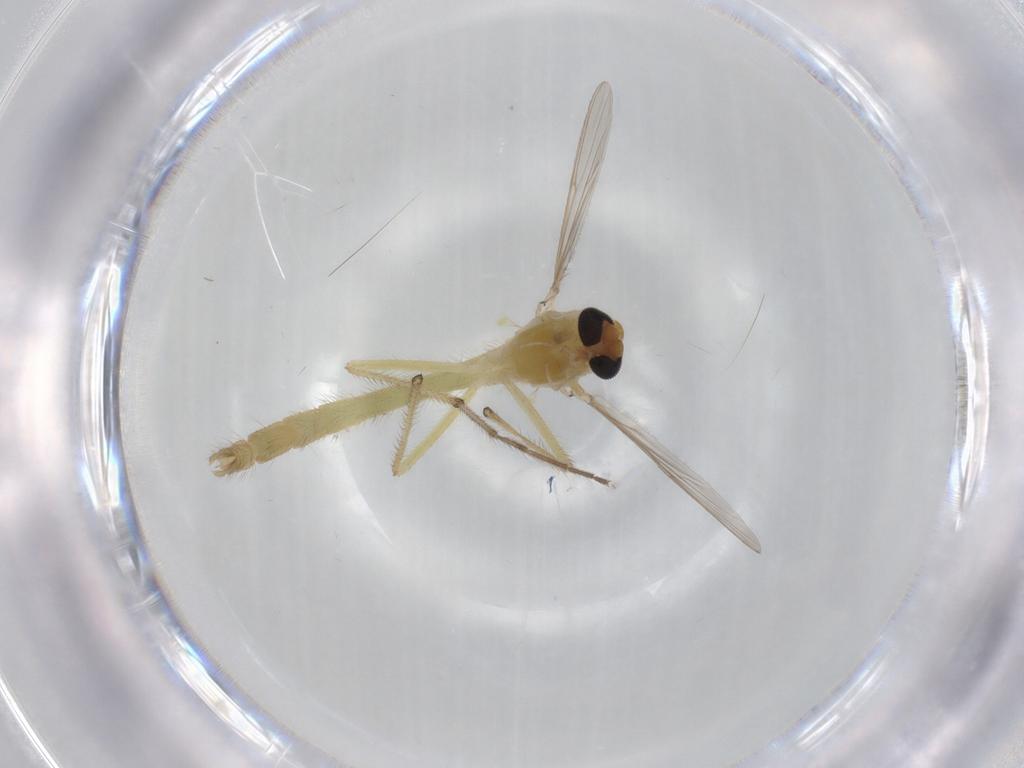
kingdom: Animalia
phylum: Arthropoda
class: Insecta
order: Diptera
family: Chironomidae
